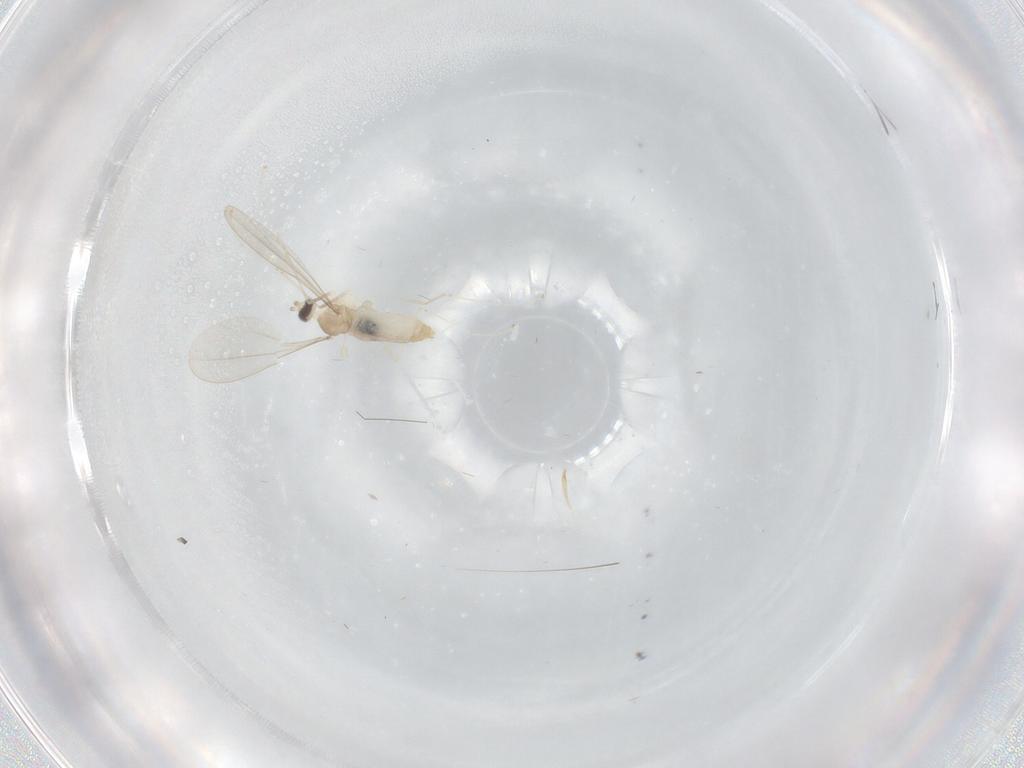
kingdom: Animalia
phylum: Arthropoda
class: Insecta
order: Diptera
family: Cecidomyiidae
